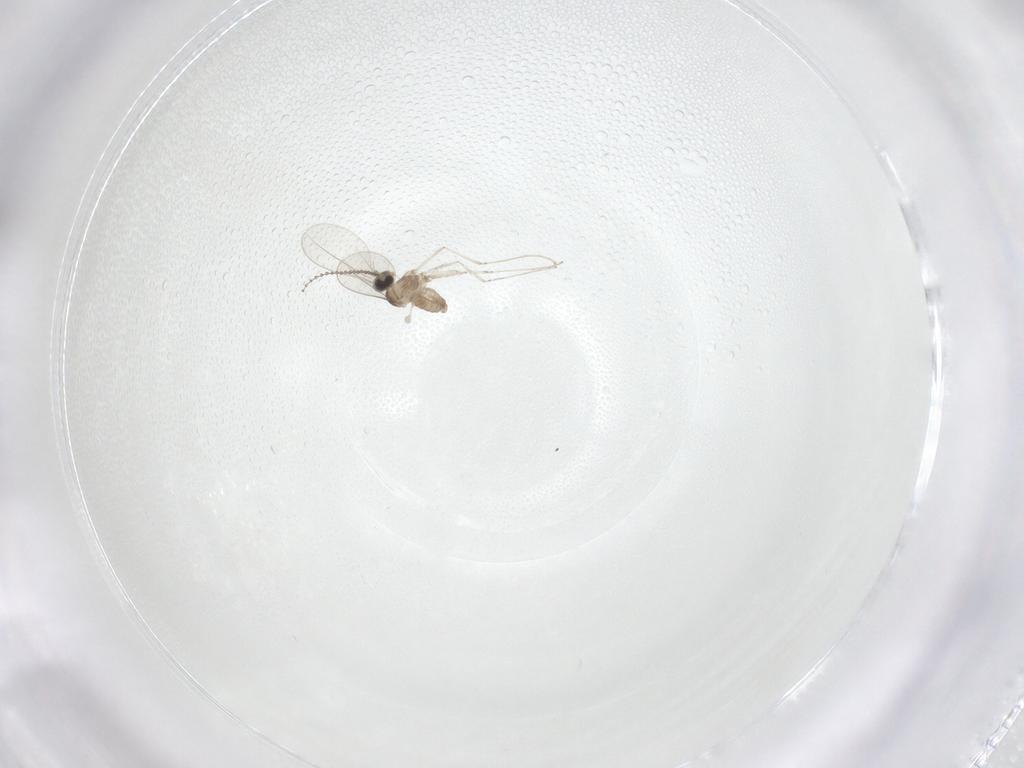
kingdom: Animalia
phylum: Arthropoda
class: Insecta
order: Diptera
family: Cecidomyiidae
